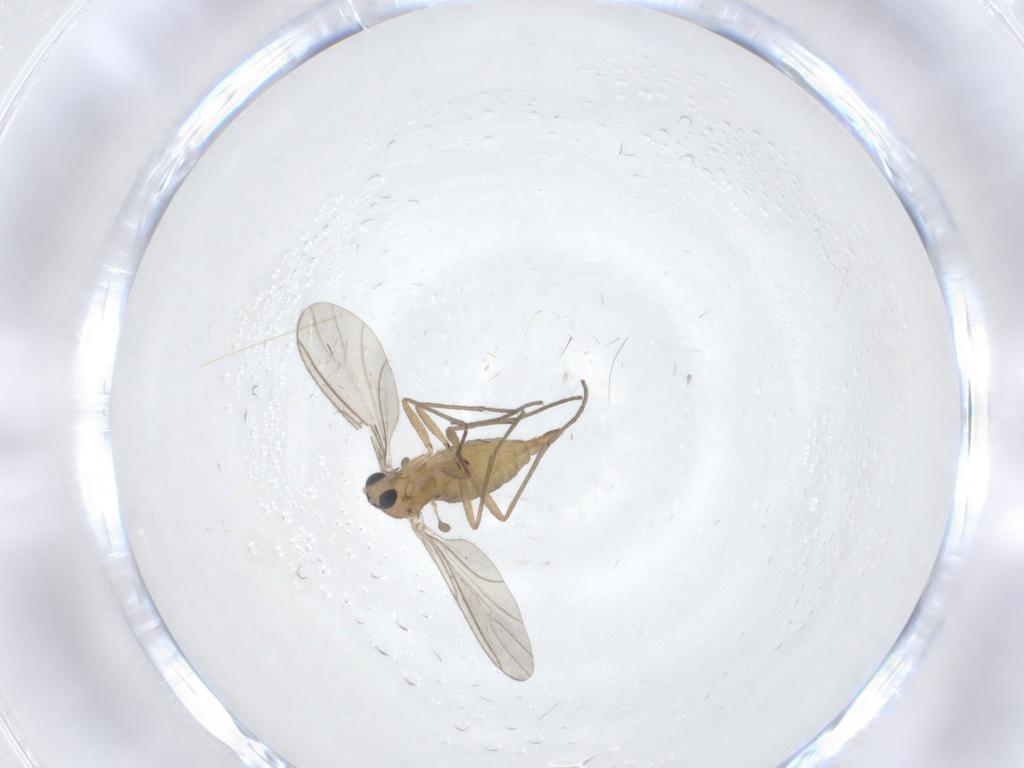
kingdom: Animalia
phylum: Arthropoda
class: Insecta
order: Diptera
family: Sciaridae
